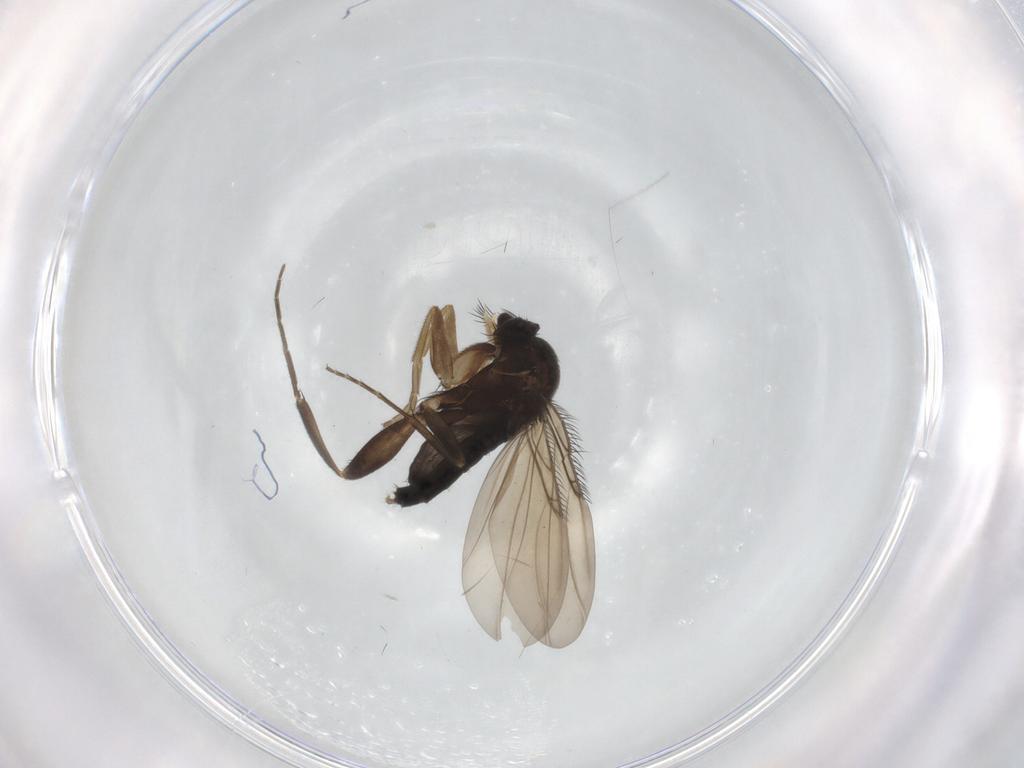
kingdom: Animalia
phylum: Arthropoda
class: Insecta
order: Diptera
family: Phoridae
